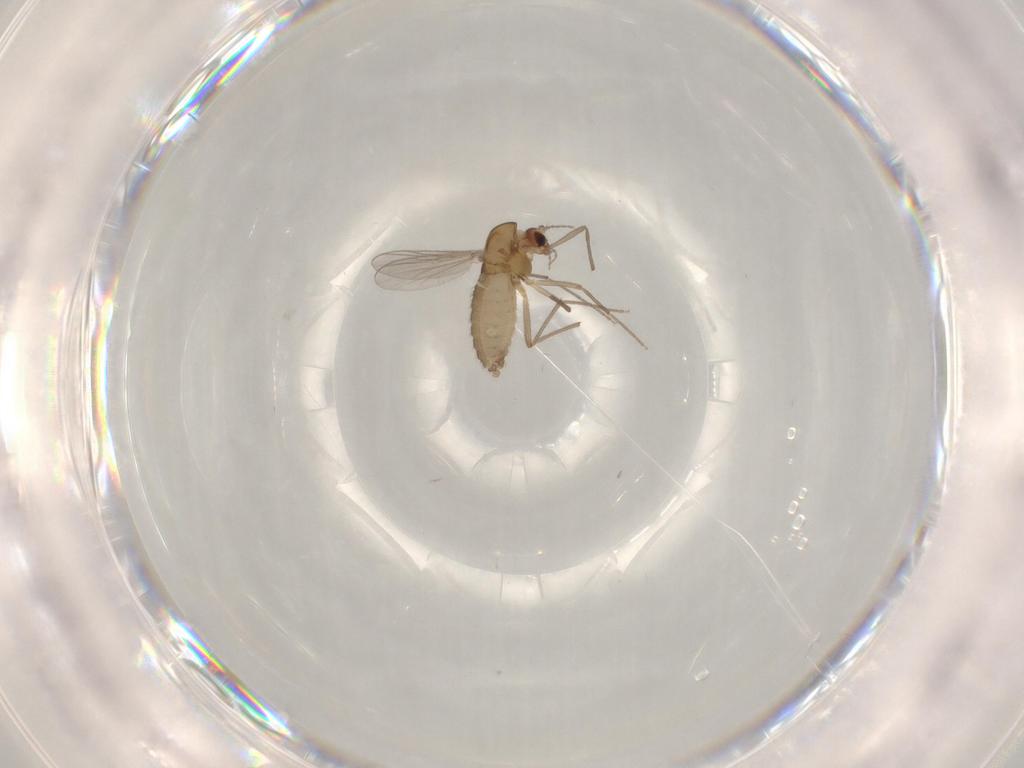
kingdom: Animalia
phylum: Arthropoda
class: Insecta
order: Diptera
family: Chironomidae
